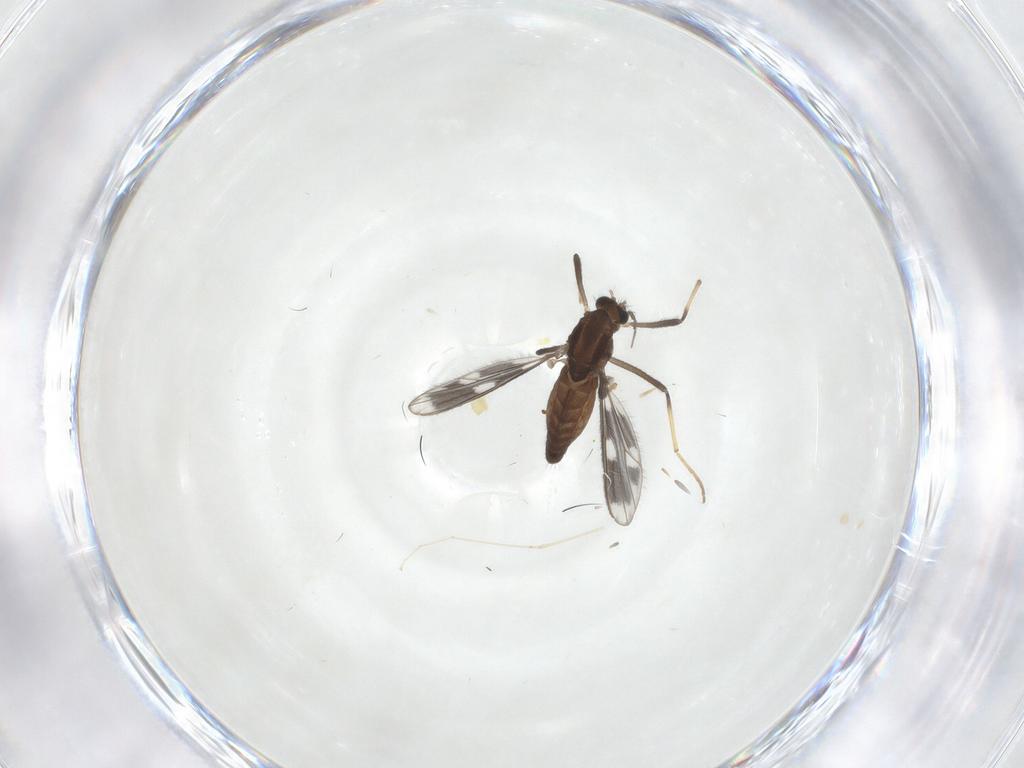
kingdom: Animalia
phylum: Arthropoda
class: Insecta
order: Diptera
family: Chironomidae
